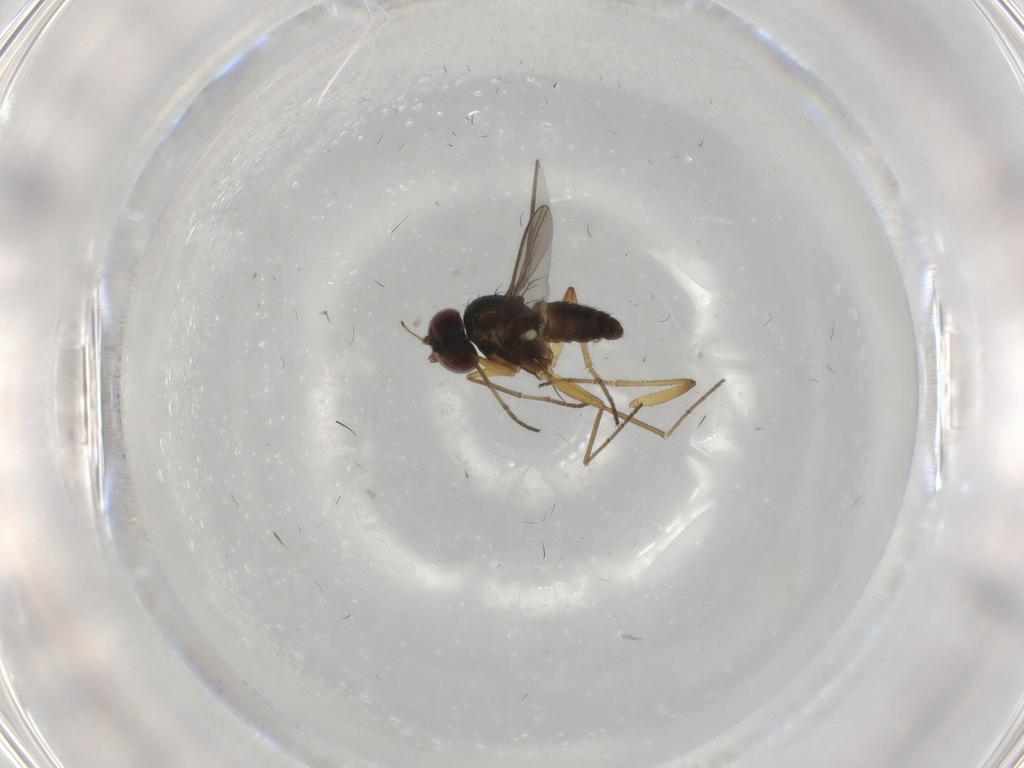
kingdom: Animalia
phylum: Arthropoda
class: Insecta
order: Diptera
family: Dolichopodidae
